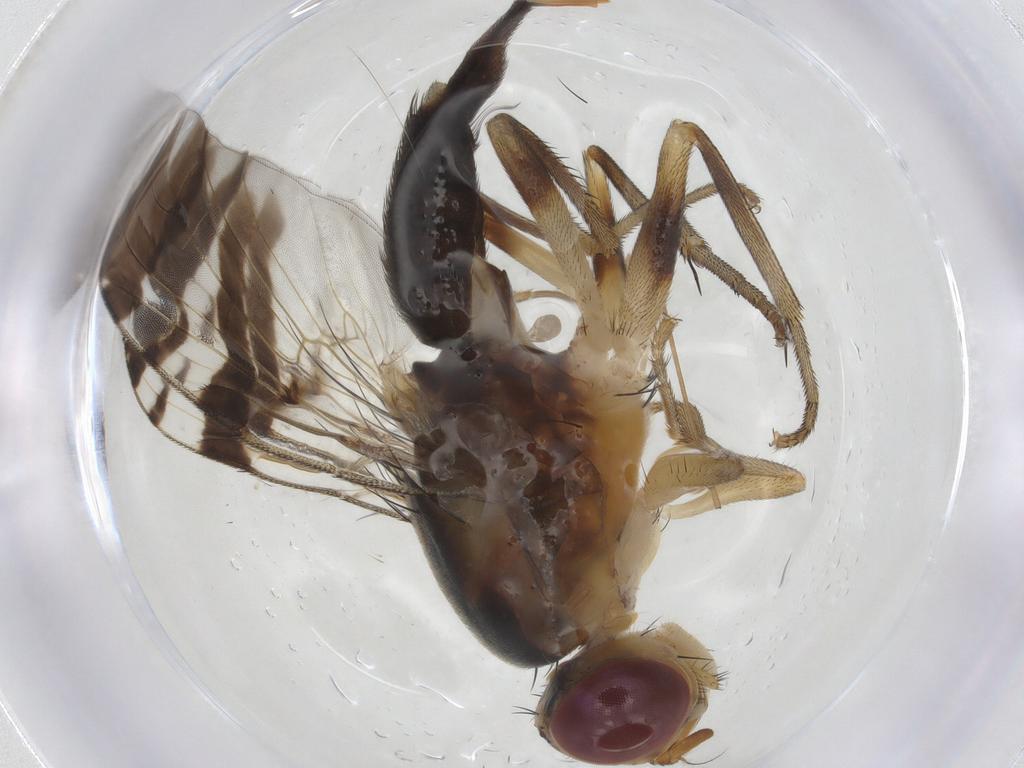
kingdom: Animalia
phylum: Arthropoda
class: Insecta
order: Diptera
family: Tephritidae
